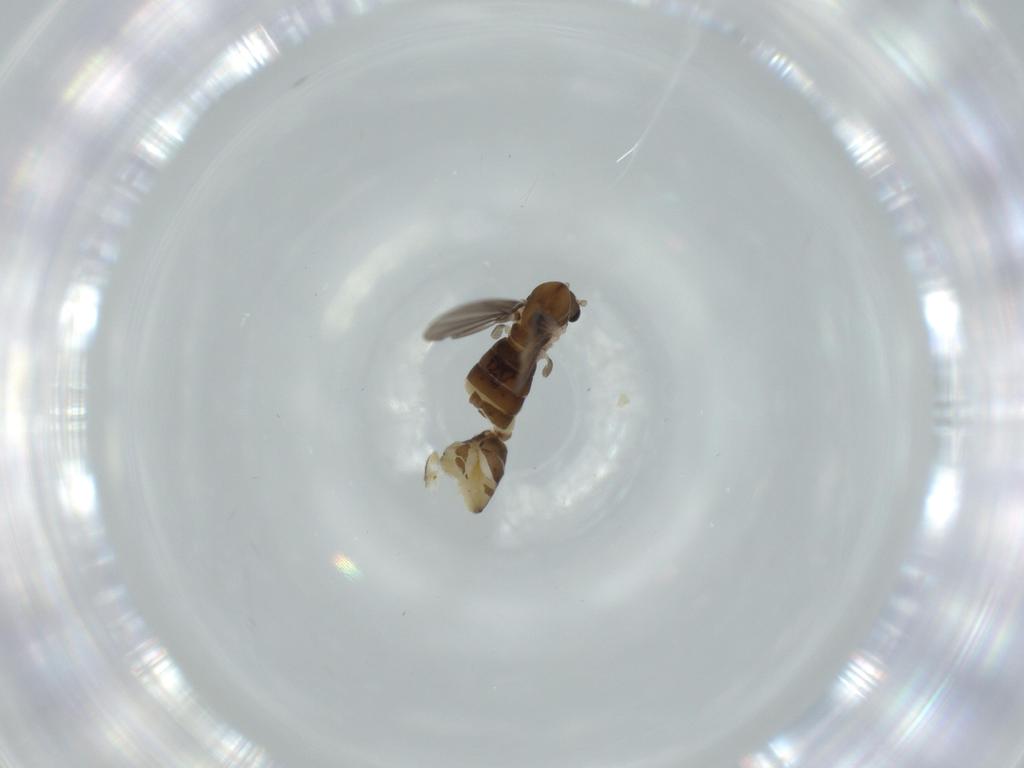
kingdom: Animalia
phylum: Arthropoda
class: Insecta
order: Diptera
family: Psychodidae
